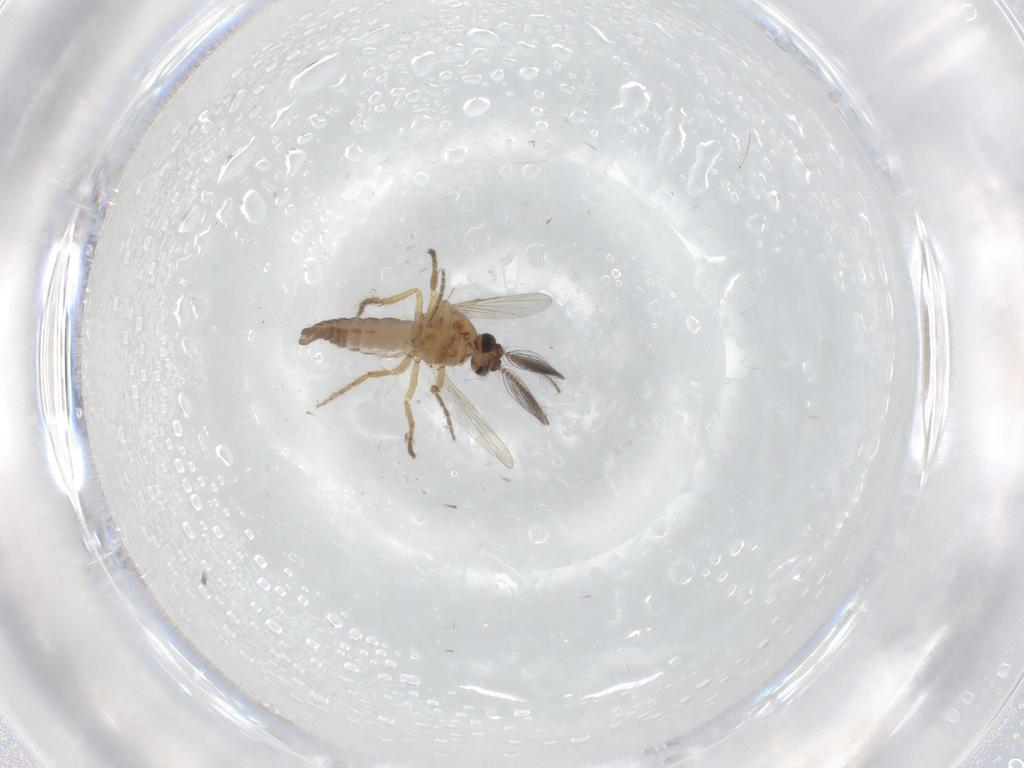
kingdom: Animalia
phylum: Arthropoda
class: Insecta
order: Diptera
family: Ceratopogonidae
